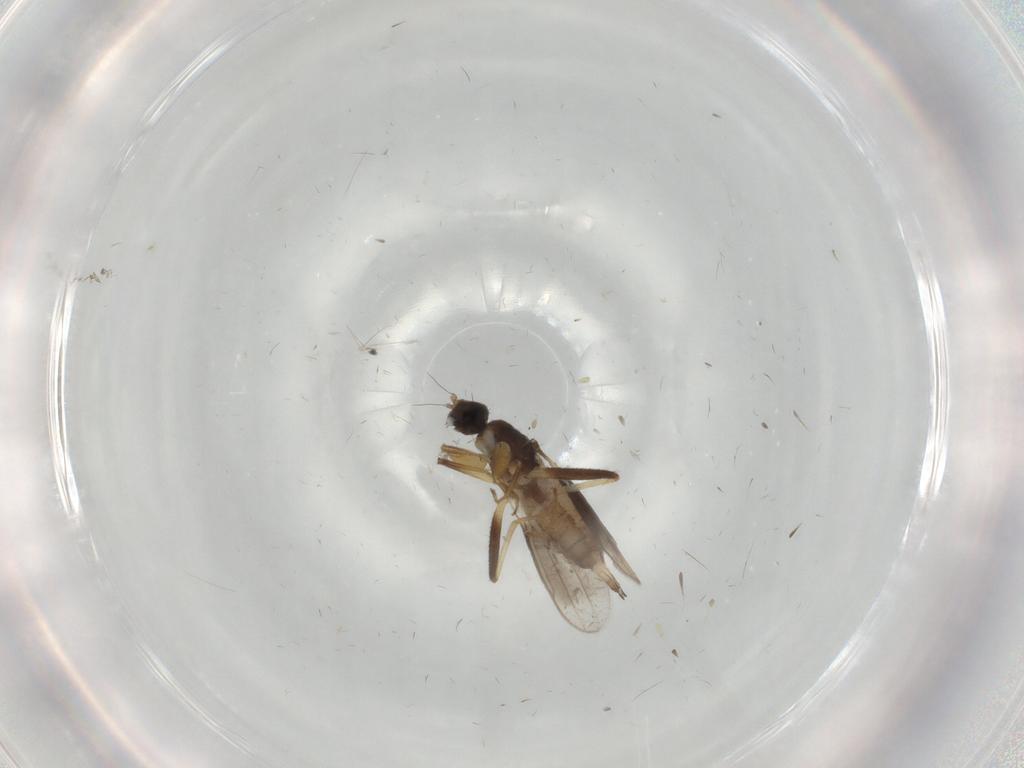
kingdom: Animalia
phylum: Arthropoda
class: Insecta
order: Diptera
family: Hybotidae
